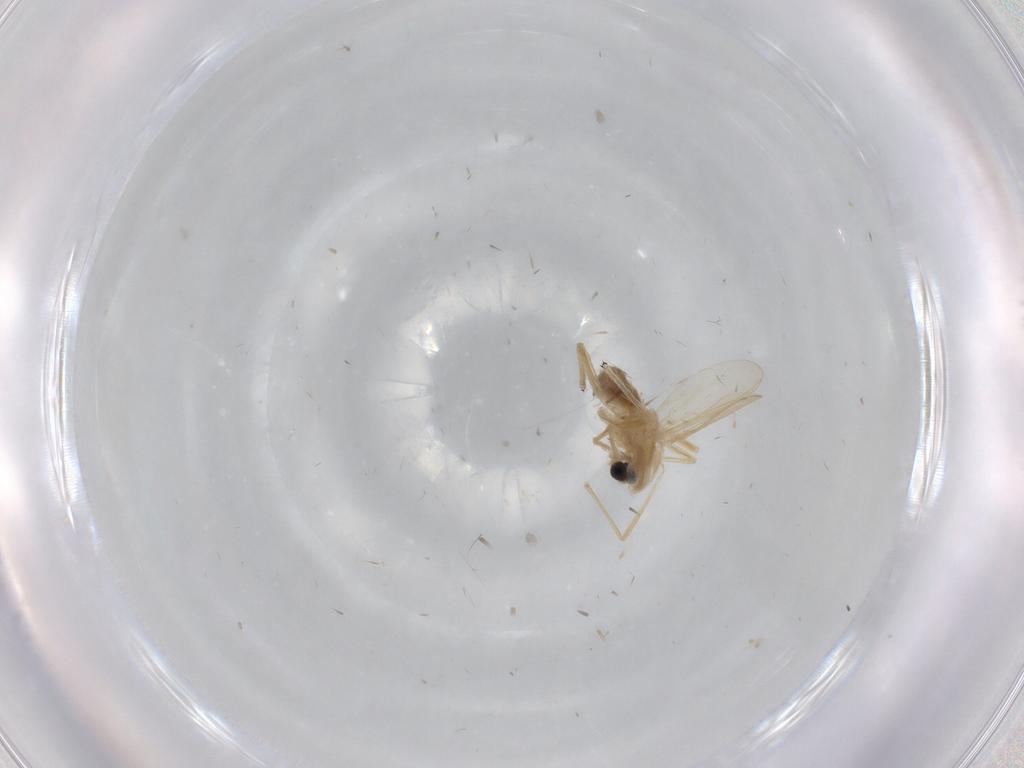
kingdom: Animalia
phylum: Arthropoda
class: Insecta
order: Diptera
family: Chironomidae
